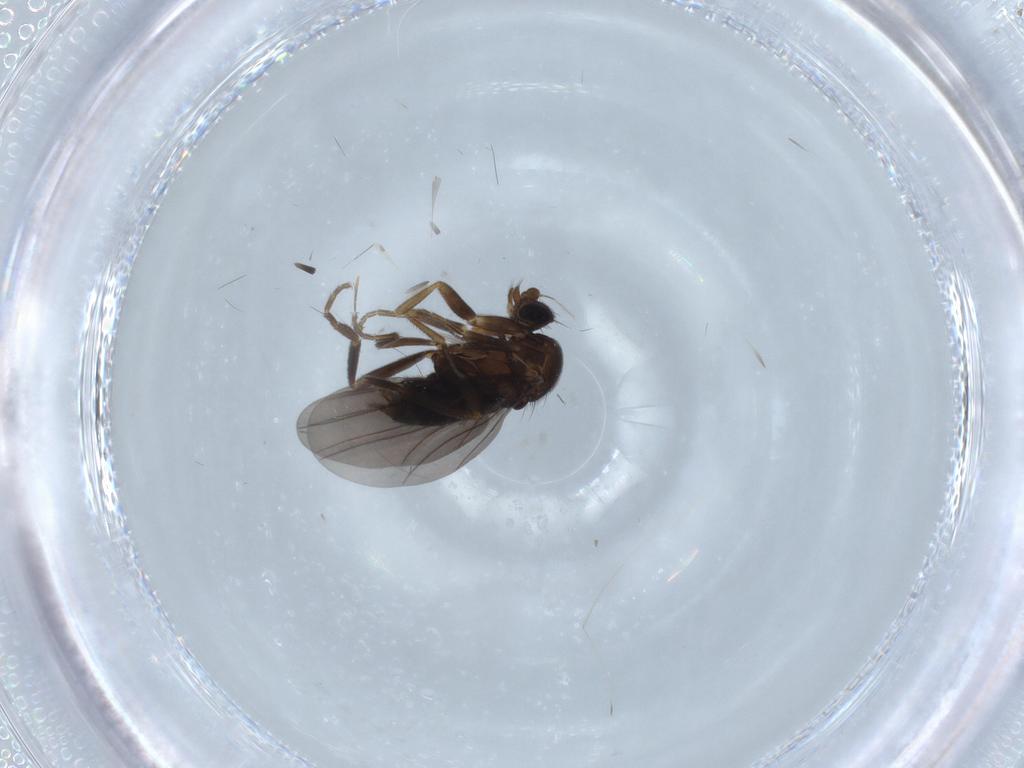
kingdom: Animalia
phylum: Arthropoda
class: Insecta
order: Diptera
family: Phoridae
